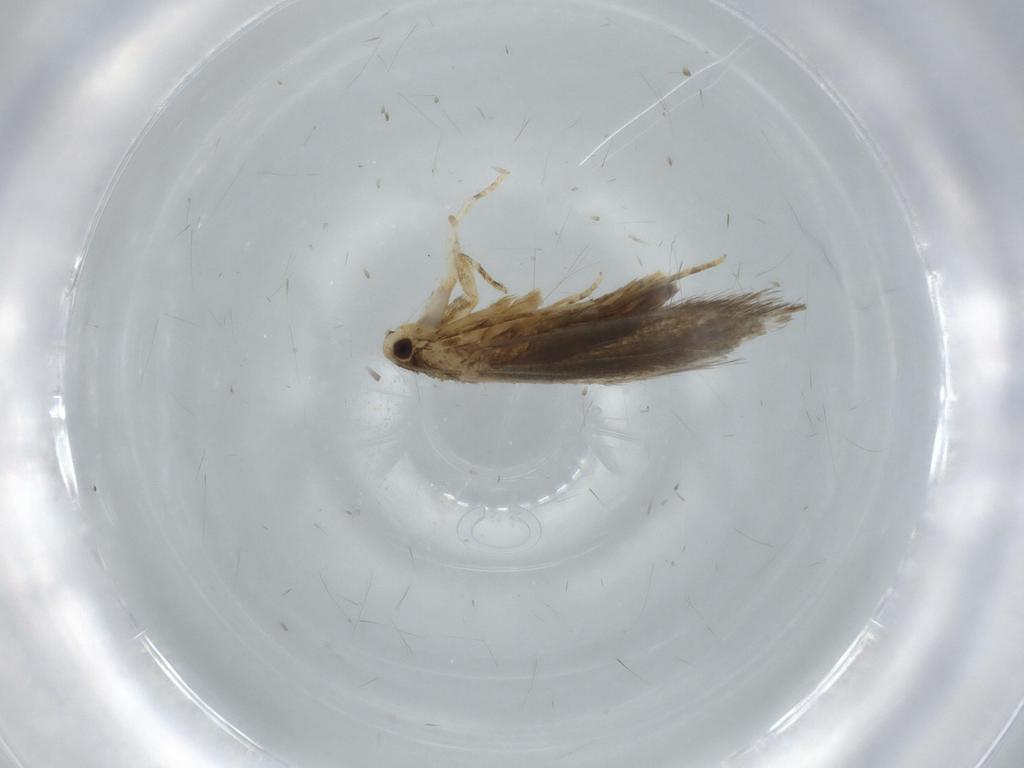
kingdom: Animalia
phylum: Arthropoda
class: Insecta
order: Lepidoptera
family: Tineidae
